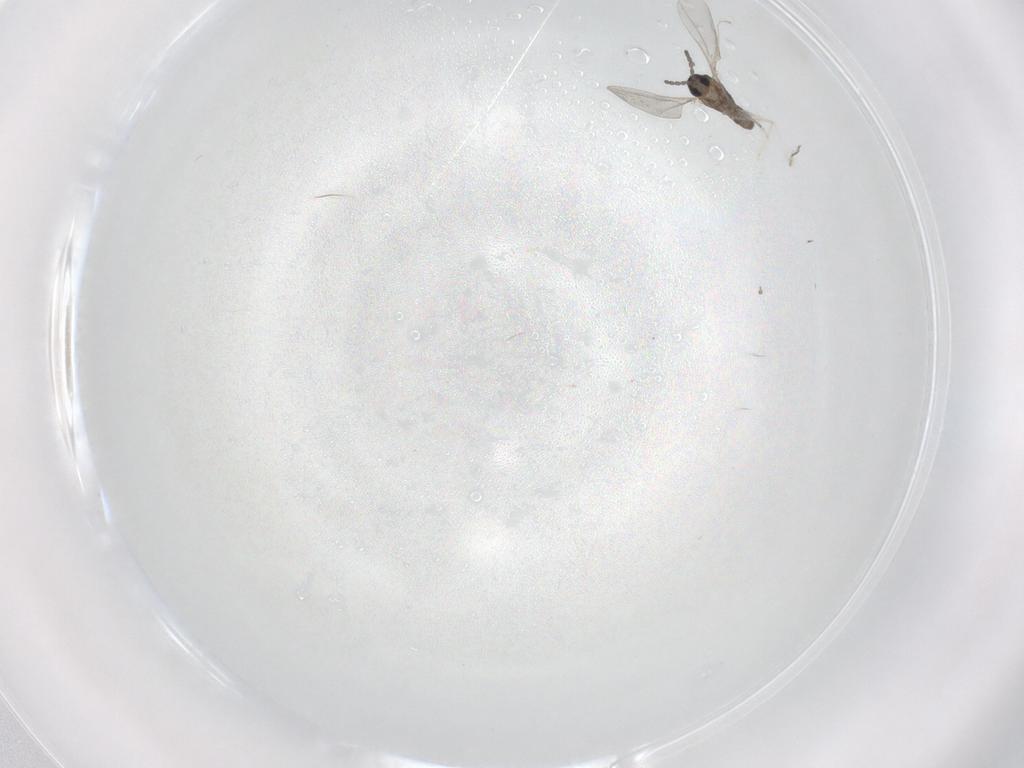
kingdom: Animalia
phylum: Arthropoda
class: Insecta
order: Diptera
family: Cecidomyiidae
